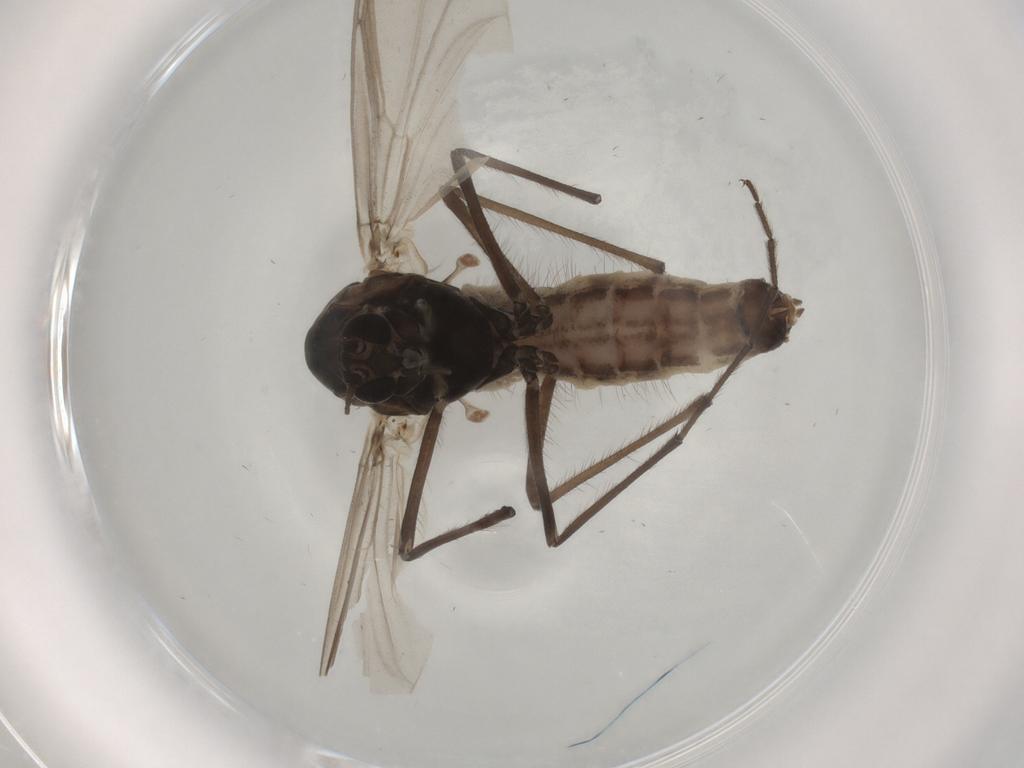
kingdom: Animalia
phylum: Arthropoda
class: Insecta
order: Diptera
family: Chironomidae
